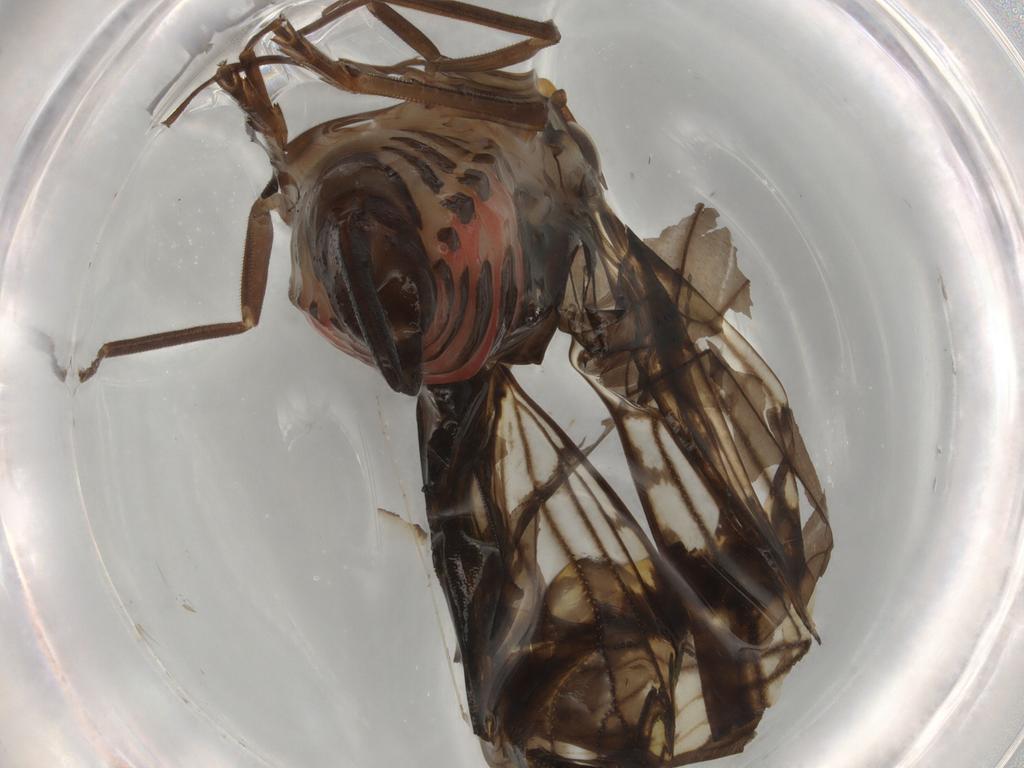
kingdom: Animalia
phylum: Arthropoda
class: Insecta
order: Hemiptera
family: Cixiidae
